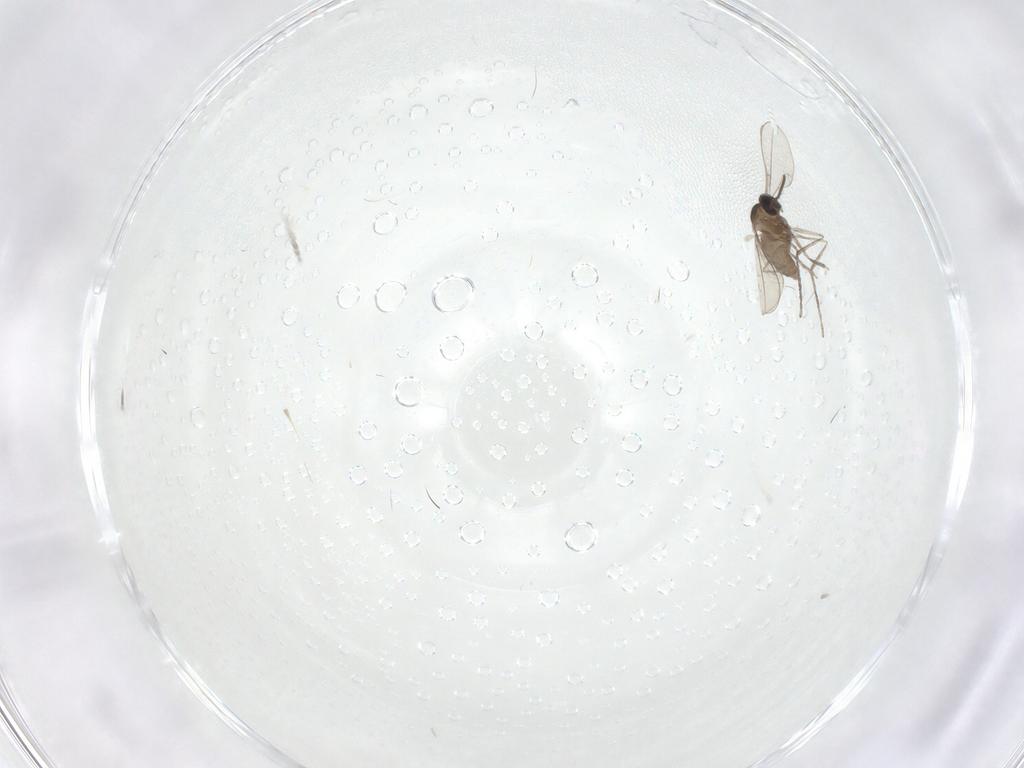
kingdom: Animalia
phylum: Arthropoda
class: Insecta
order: Diptera
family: Cecidomyiidae
